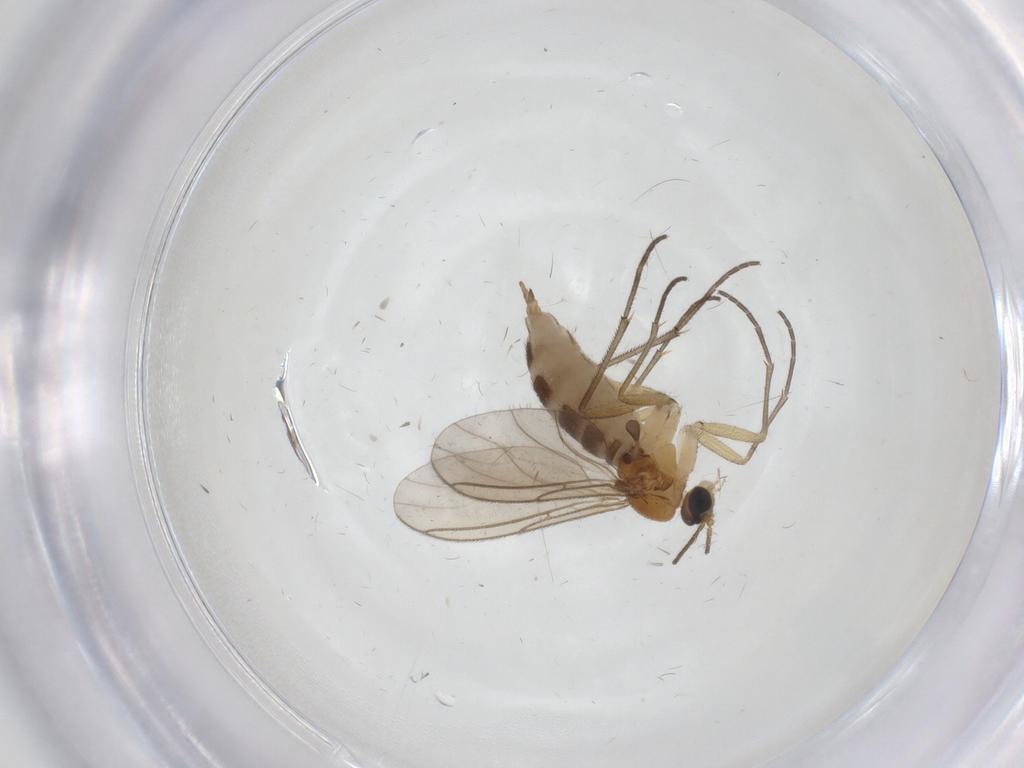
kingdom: Animalia
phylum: Arthropoda
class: Insecta
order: Diptera
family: Sciaridae
